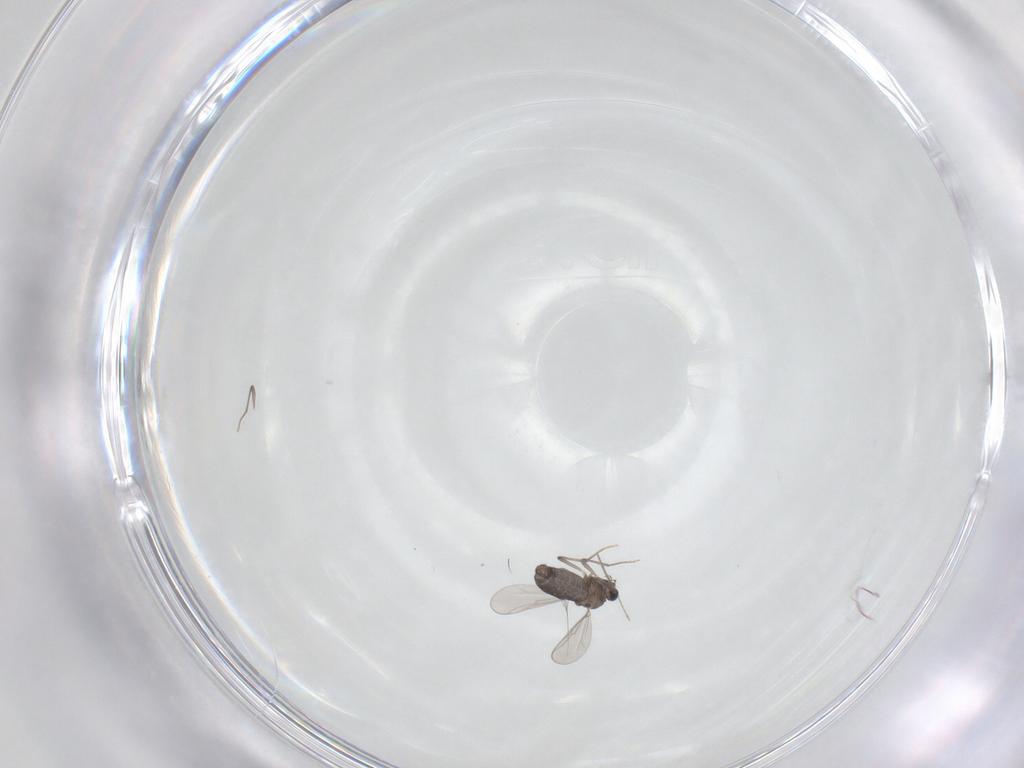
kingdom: Animalia
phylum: Arthropoda
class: Insecta
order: Diptera
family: Chironomidae
